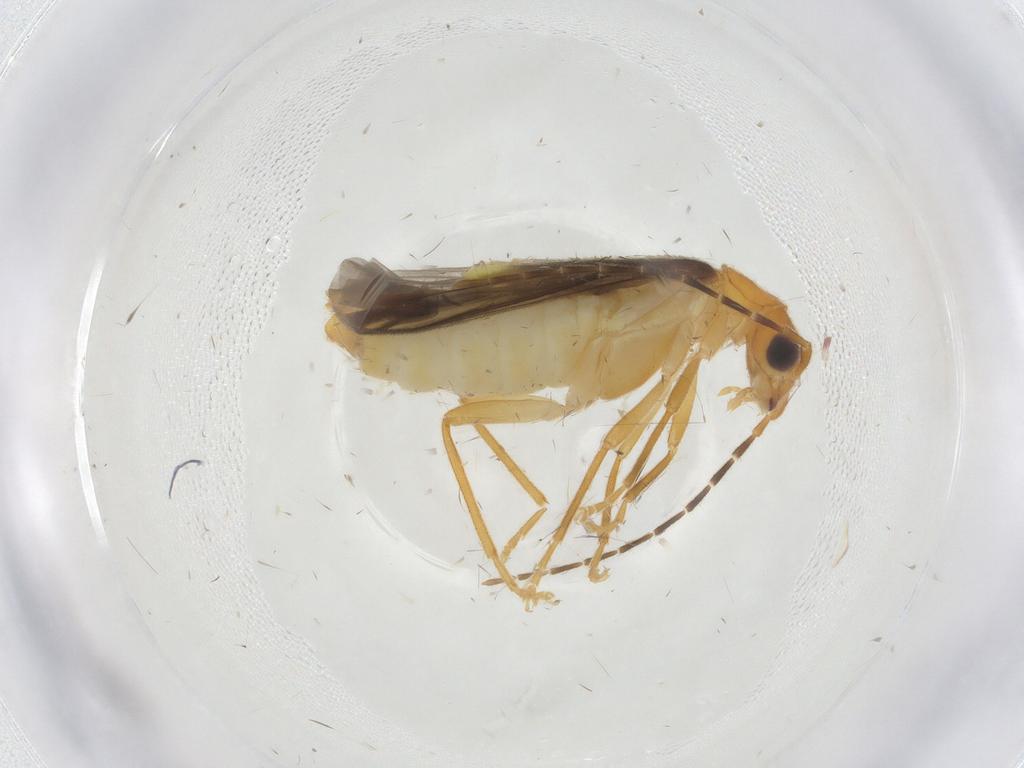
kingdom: Animalia
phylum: Arthropoda
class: Insecta
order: Coleoptera
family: Cantharidae
